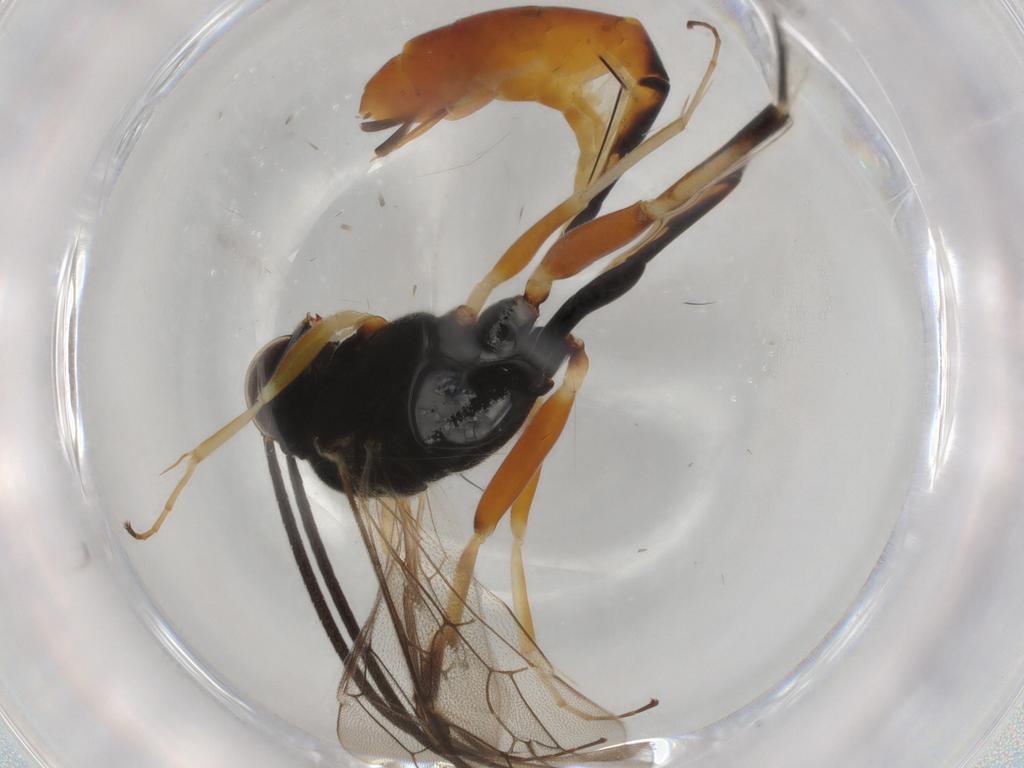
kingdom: Animalia
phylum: Arthropoda
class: Insecta
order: Hymenoptera
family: Ichneumonidae
